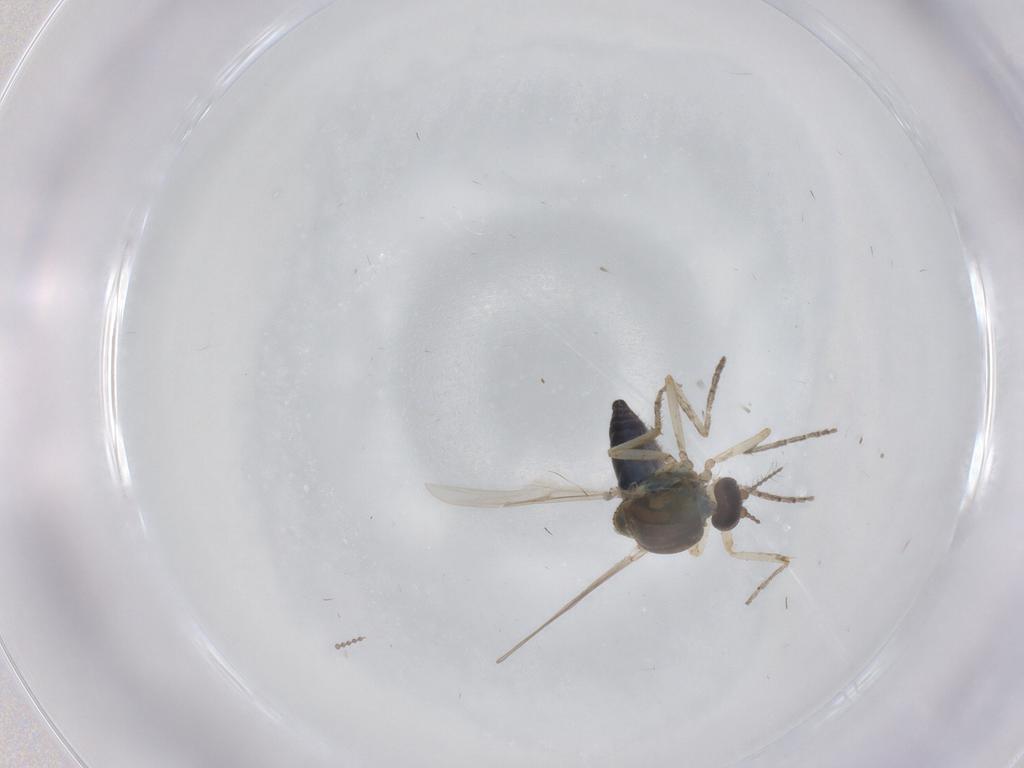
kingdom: Animalia
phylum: Arthropoda
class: Insecta
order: Diptera
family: Ceratopogonidae
